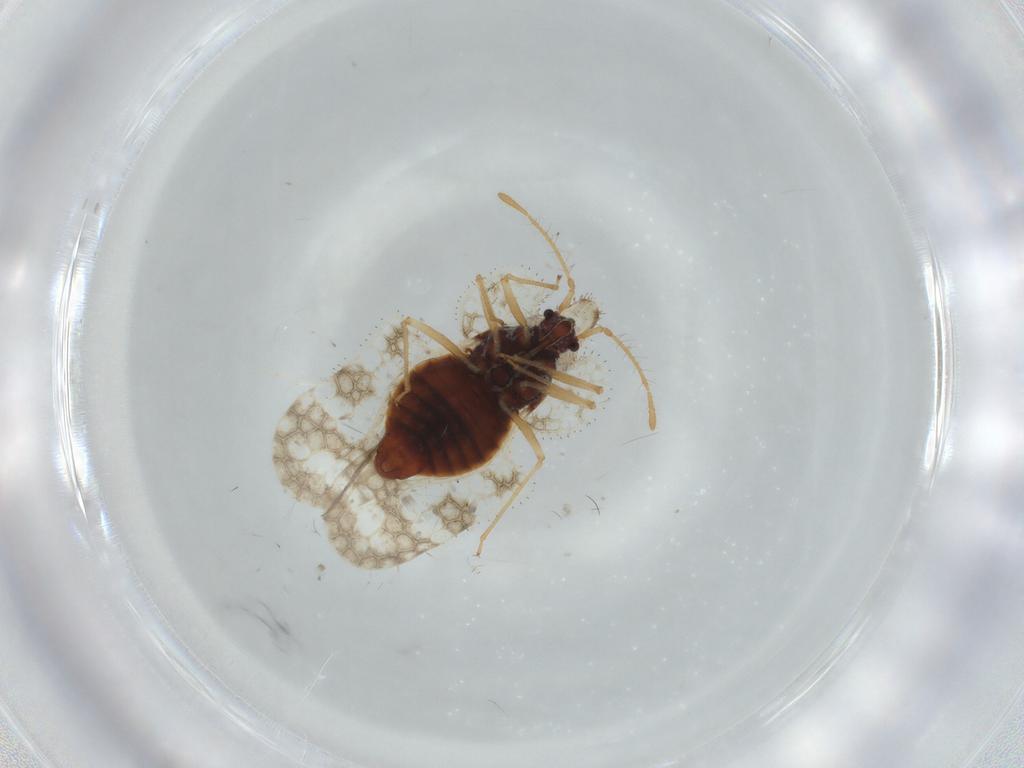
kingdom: Animalia
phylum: Arthropoda
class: Insecta
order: Hemiptera
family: Tingidae
